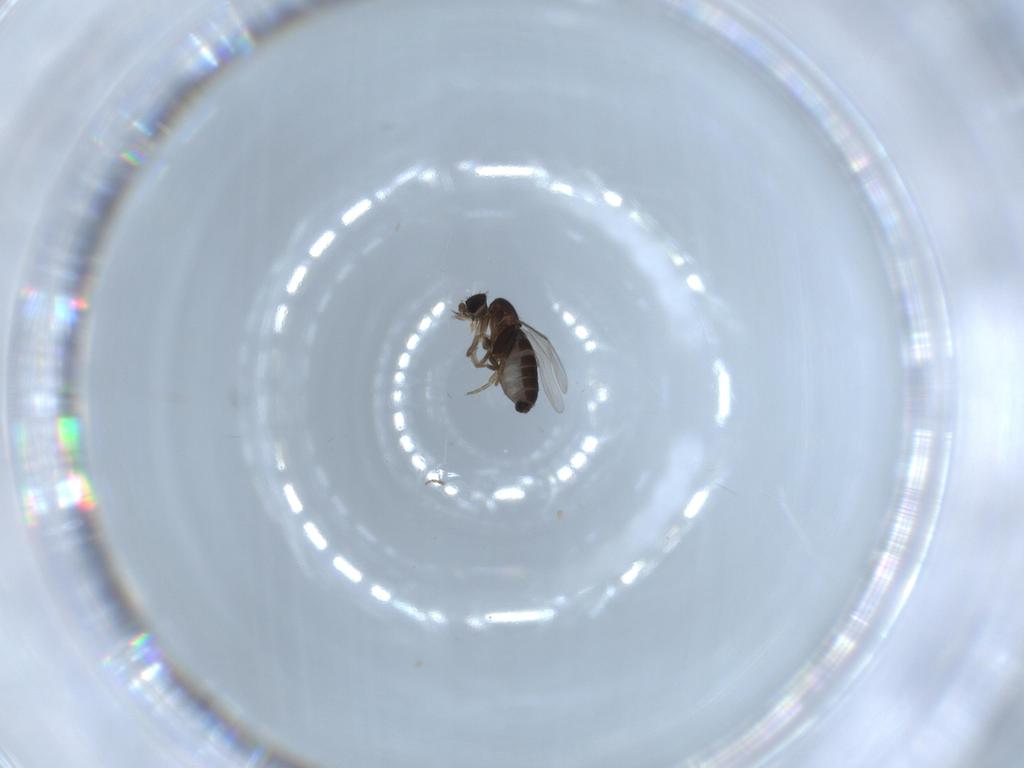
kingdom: Animalia
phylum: Arthropoda
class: Insecta
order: Diptera
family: Phoridae
